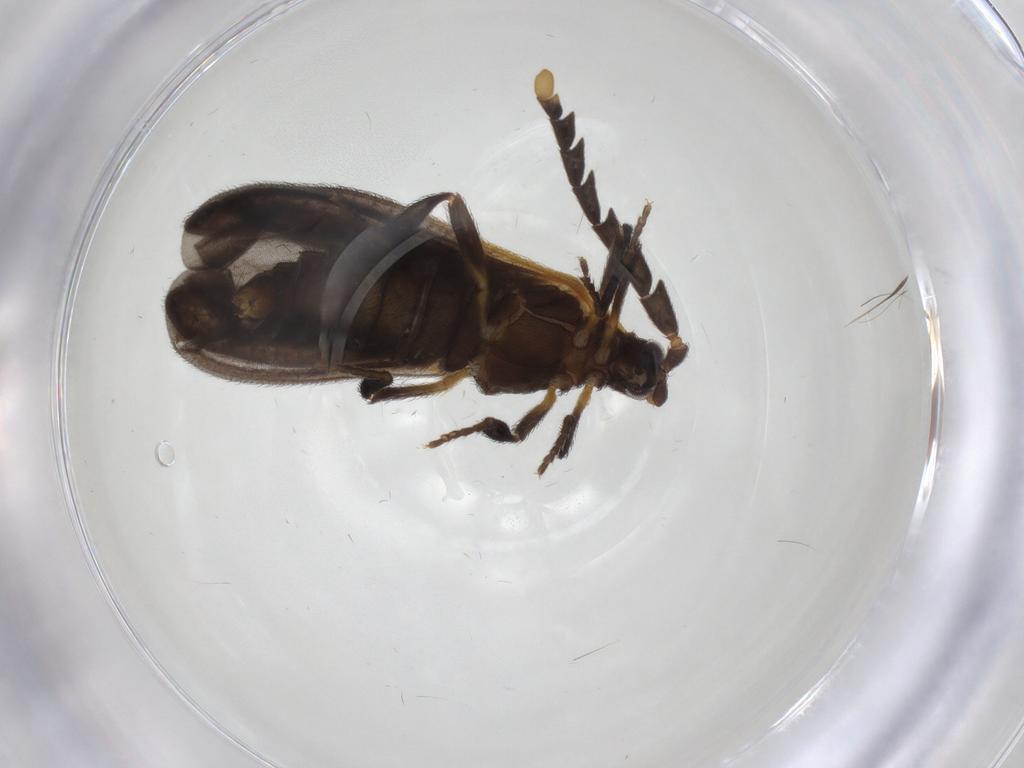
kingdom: Animalia
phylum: Arthropoda
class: Insecta
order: Coleoptera
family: Lycidae
